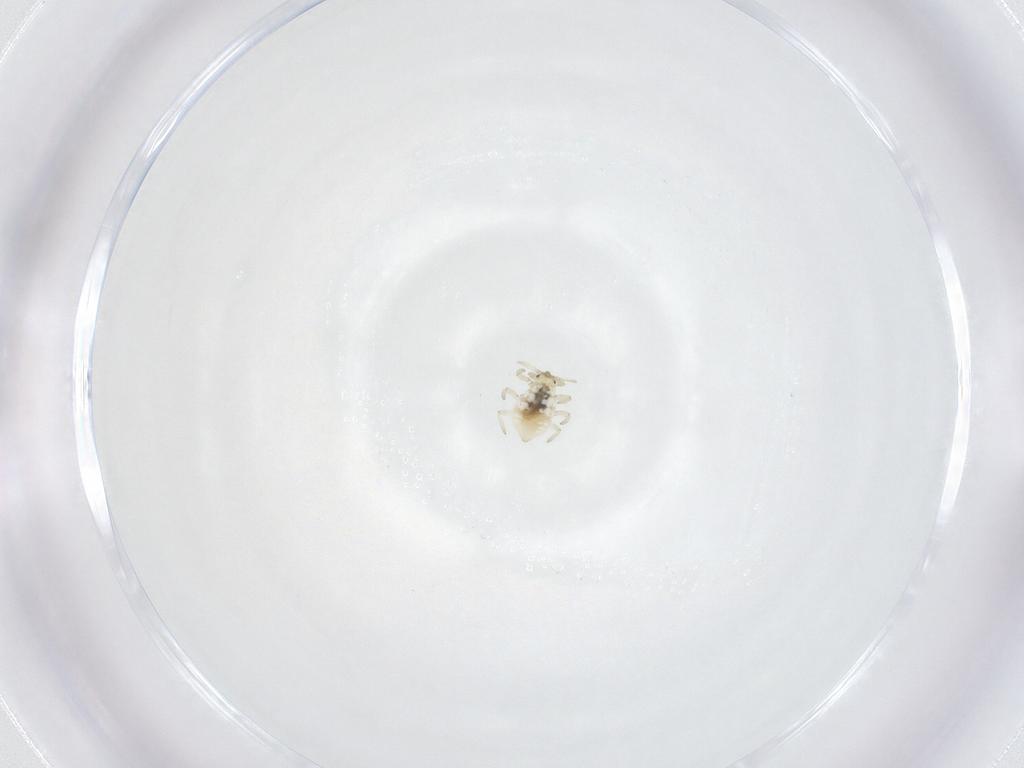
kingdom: Animalia
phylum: Arthropoda
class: Insecta
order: Neuroptera
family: Coniopterygidae
